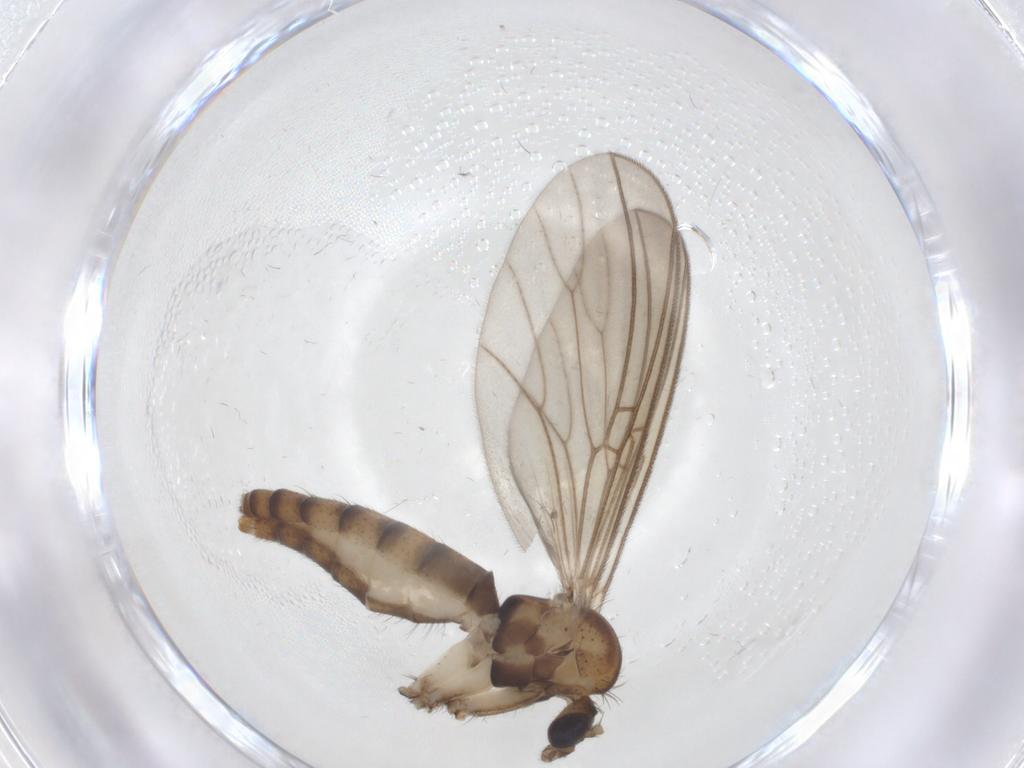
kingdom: Animalia
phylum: Arthropoda
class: Insecta
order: Diptera
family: Mycetophilidae
